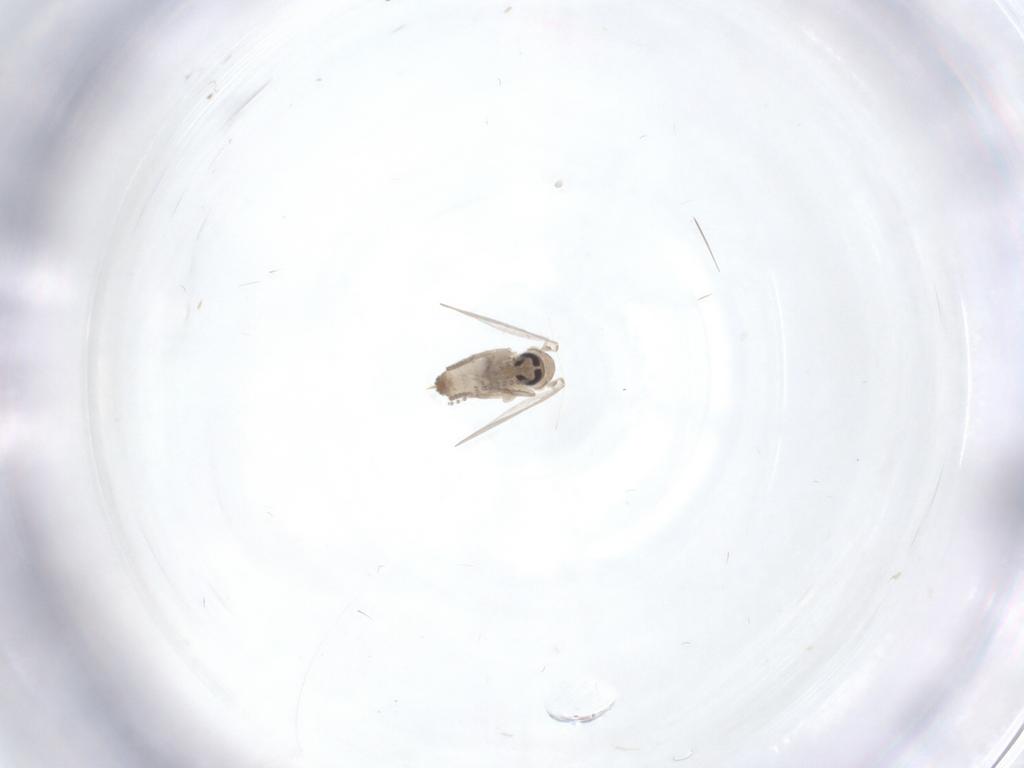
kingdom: Animalia
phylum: Arthropoda
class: Insecta
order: Diptera
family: Psychodidae
